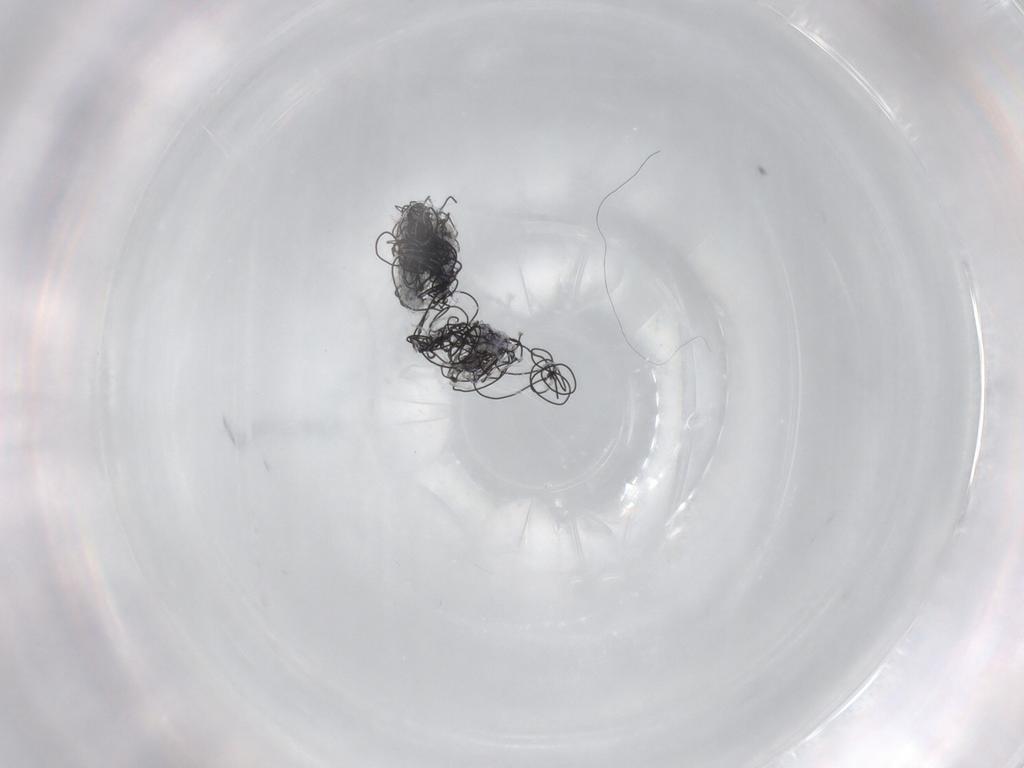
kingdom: Animalia
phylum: Arthropoda
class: Insecta
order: Diptera
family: Chironomidae
